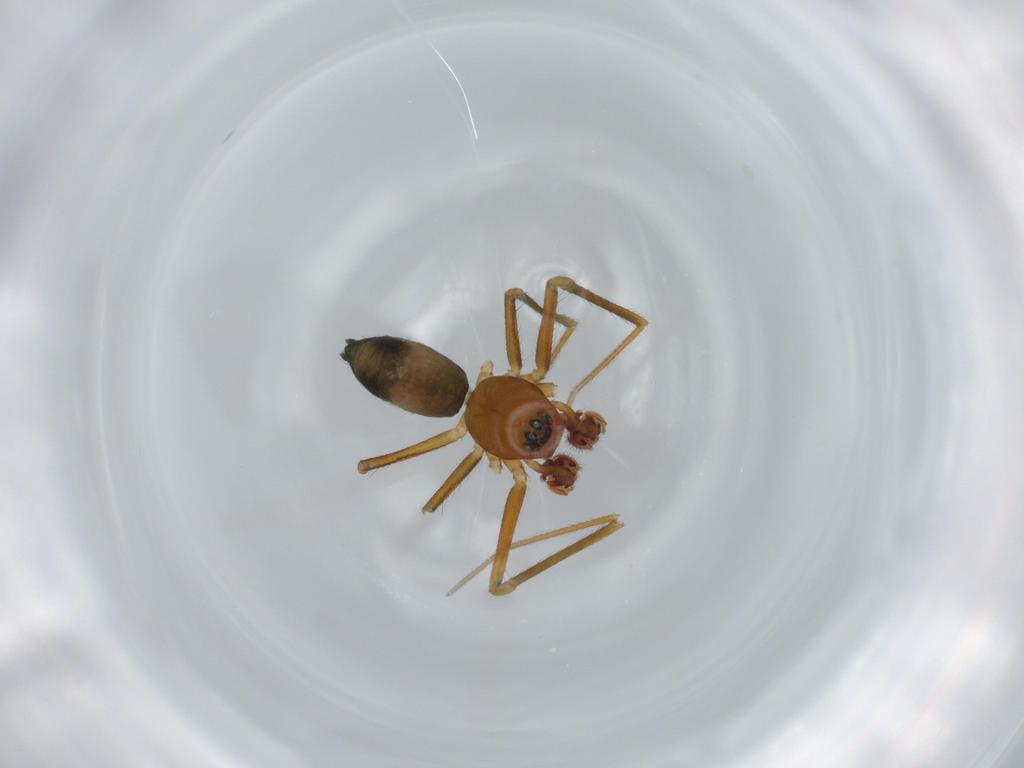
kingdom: Animalia
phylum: Arthropoda
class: Arachnida
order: Araneae
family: Linyphiidae
